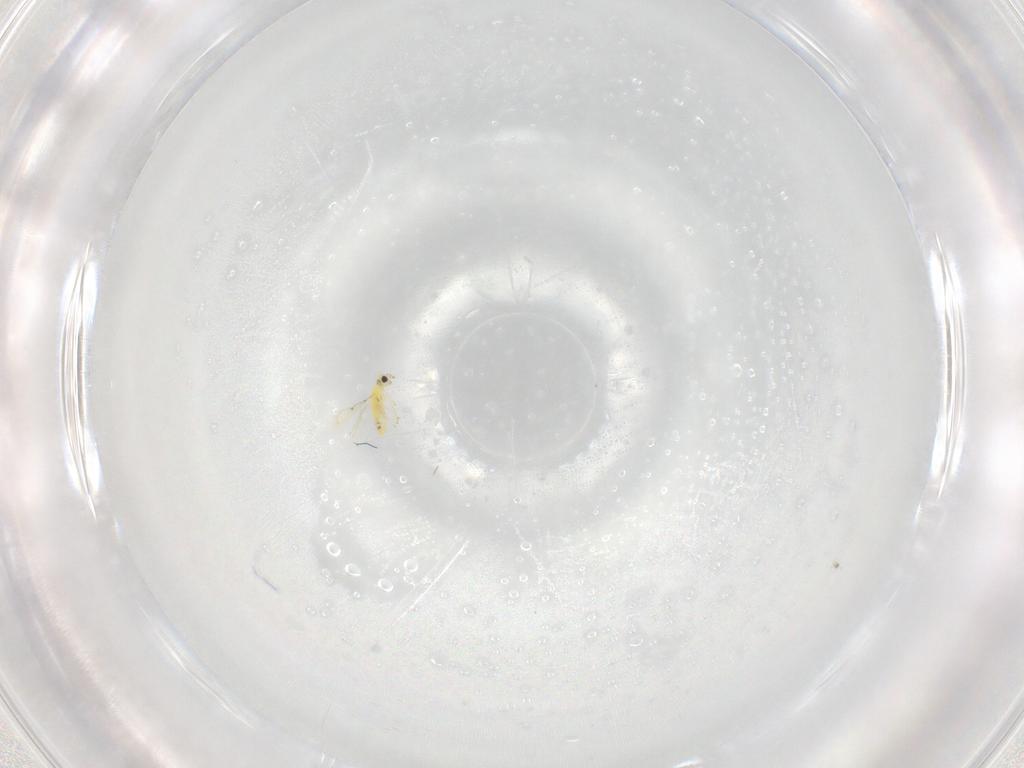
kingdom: Animalia
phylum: Arthropoda
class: Insecta
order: Hymenoptera
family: Trichogrammatidae
